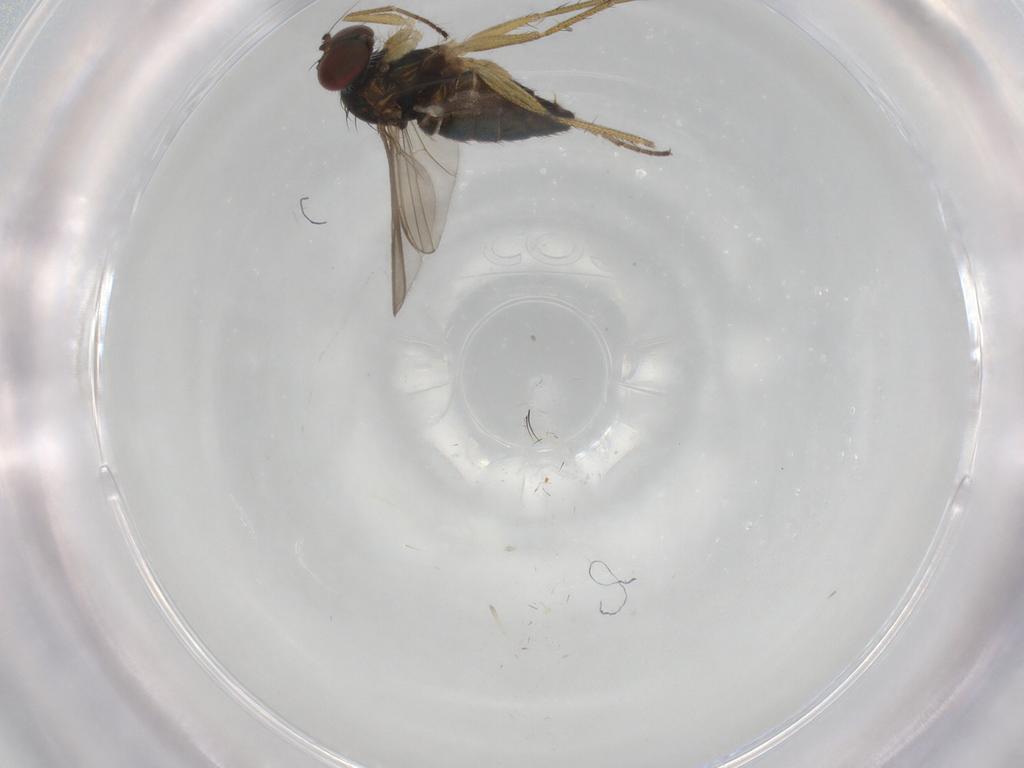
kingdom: Animalia
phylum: Arthropoda
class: Insecta
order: Diptera
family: Dolichopodidae
